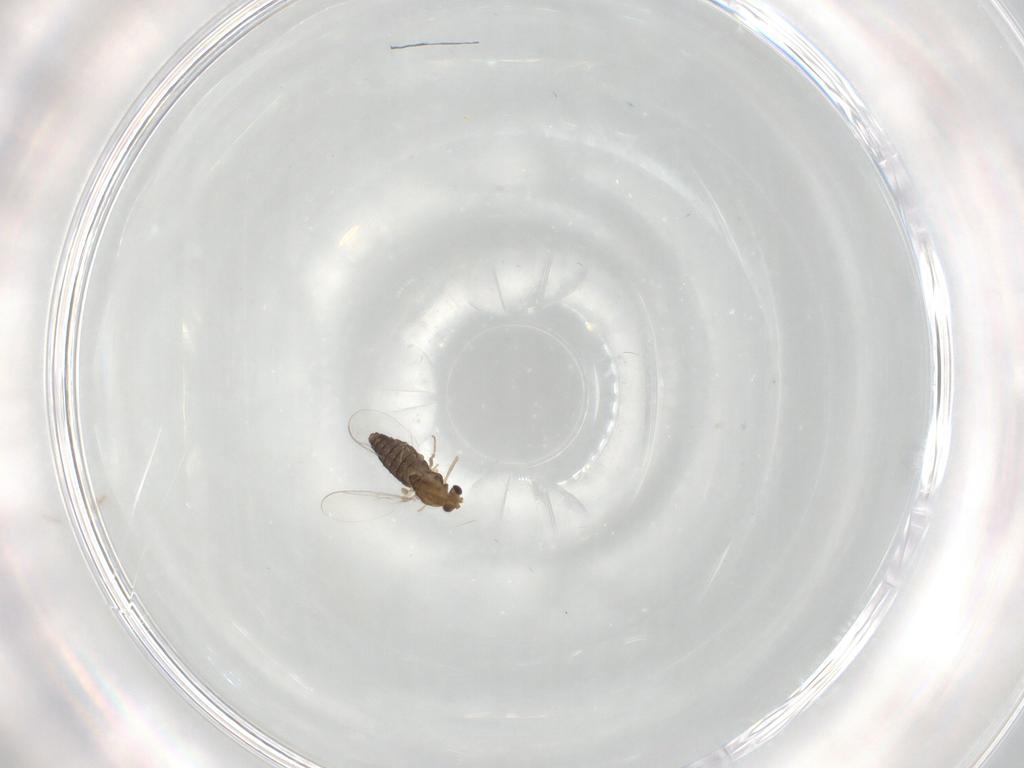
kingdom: Animalia
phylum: Arthropoda
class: Insecta
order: Diptera
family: Chironomidae
